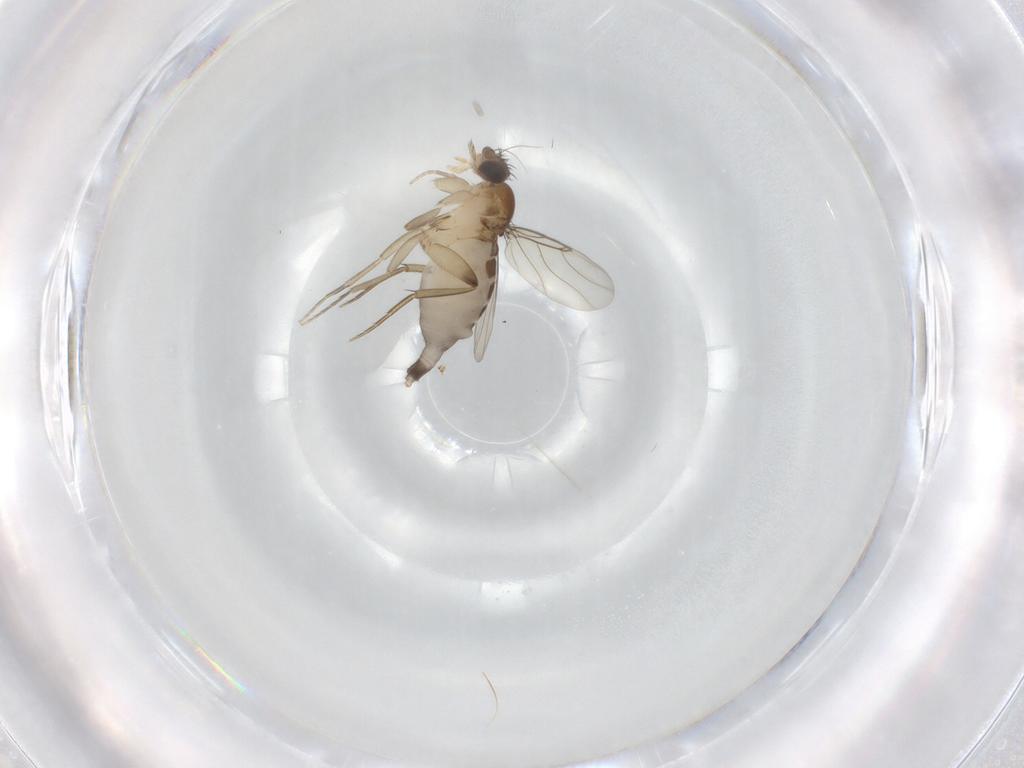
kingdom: Animalia
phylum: Arthropoda
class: Insecta
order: Diptera
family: Phoridae
